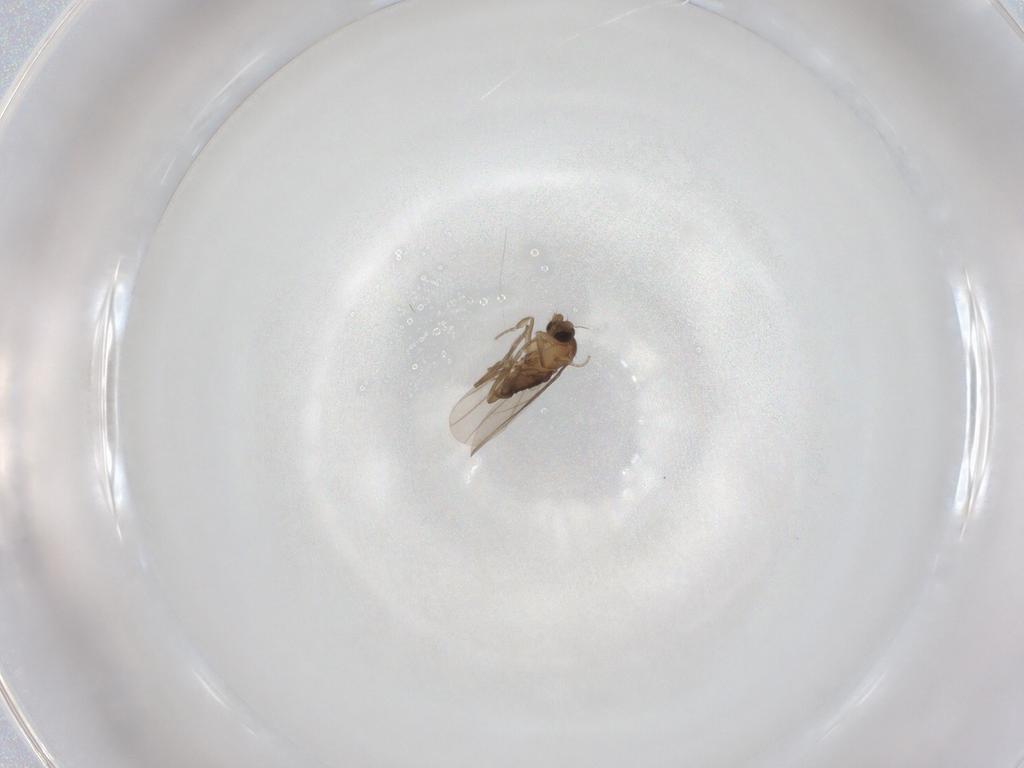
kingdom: Animalia
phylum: Arthropoda
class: Insecta
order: Diptera
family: Phoridae
